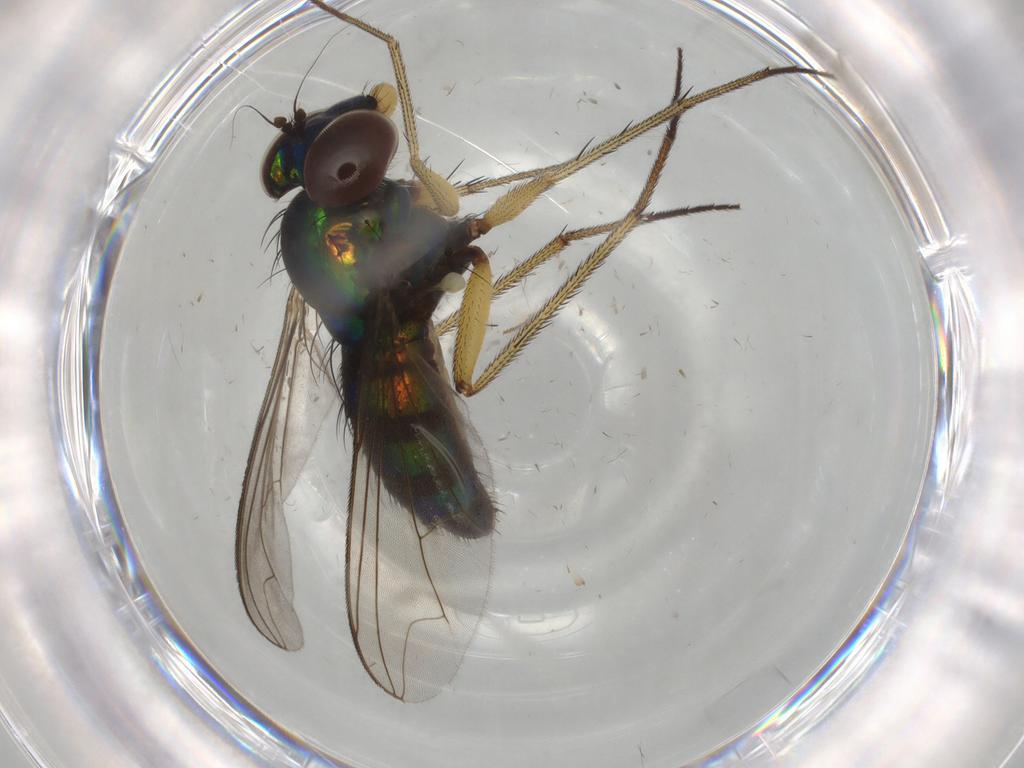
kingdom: Animalia
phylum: Arthropoda
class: Insecta
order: Diptera
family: Dolichopodidae
